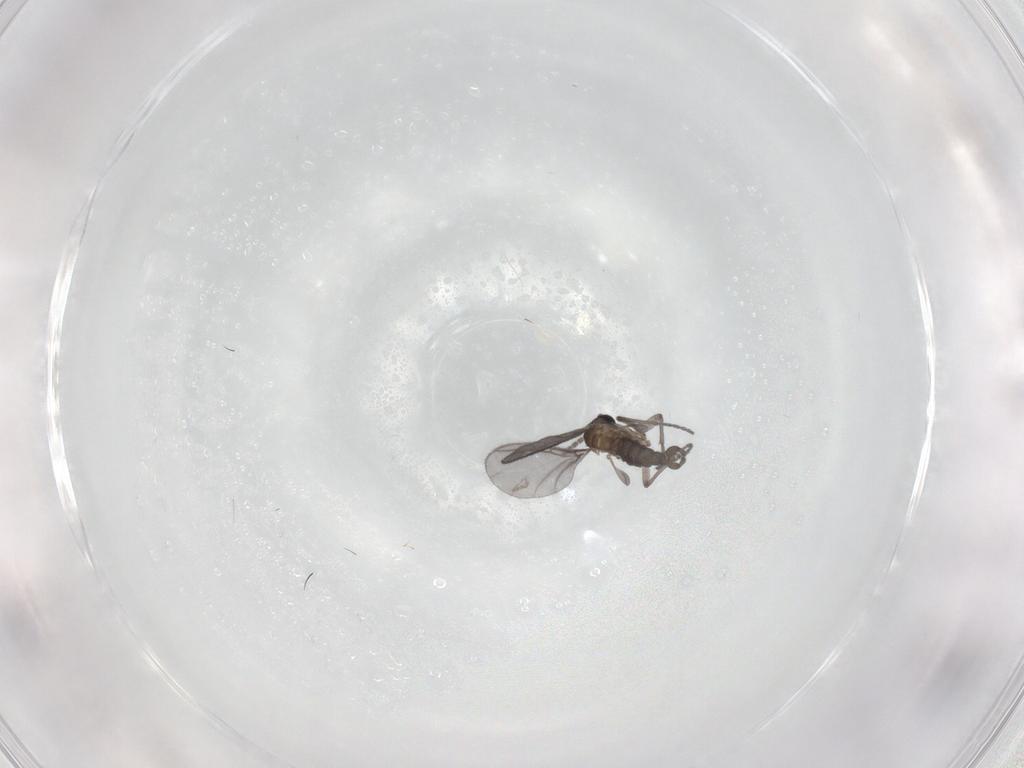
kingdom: Animalia
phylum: Arthropoda
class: Insecta
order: Diptera
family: Sciaridae
